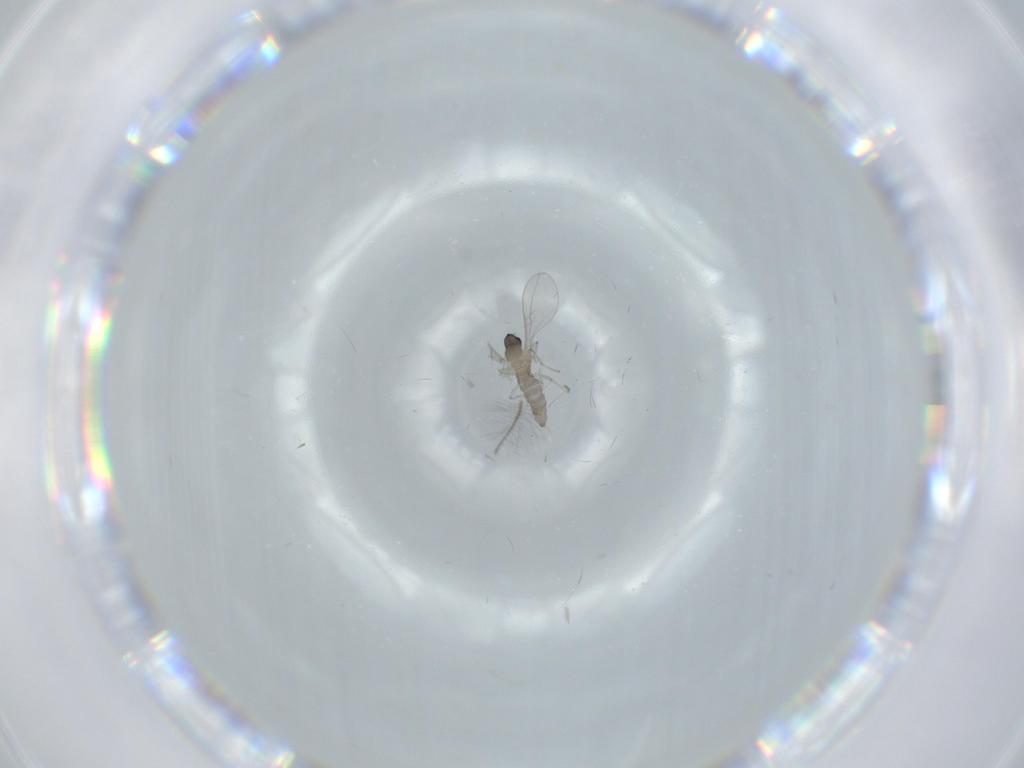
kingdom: Animalia
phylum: Arthropoda
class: Insecta
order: Diptera
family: Cecidomyiidae
